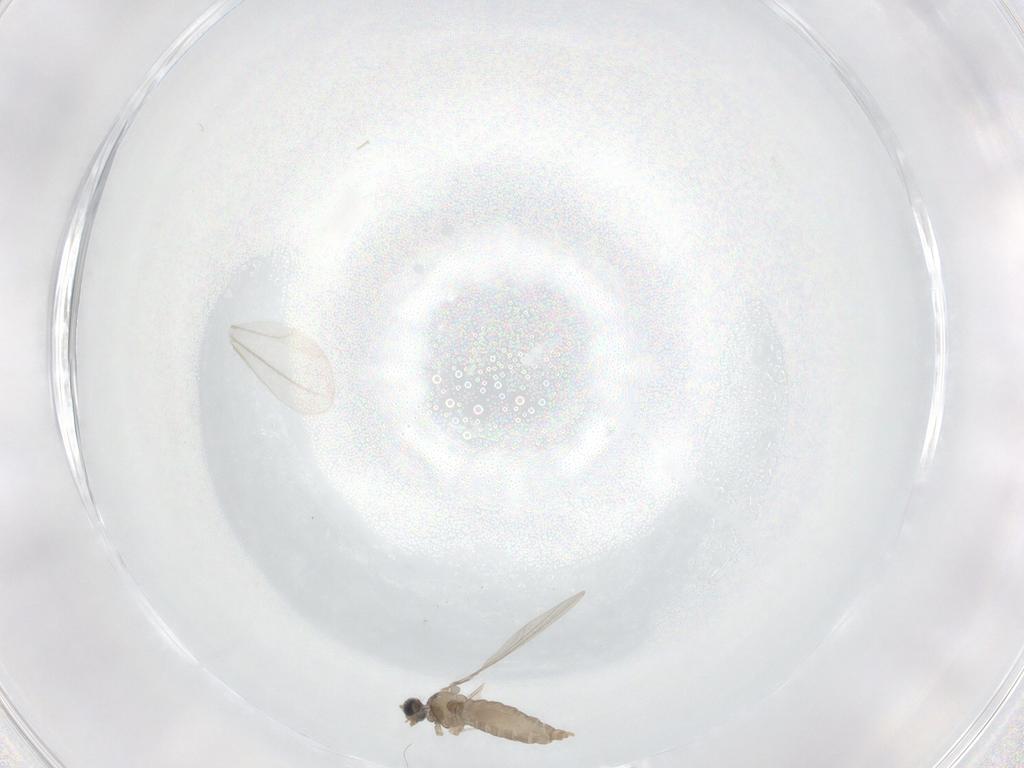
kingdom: Animalia
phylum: Arthropoda
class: Insecta
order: Diptera
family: Cecidomyiidae
